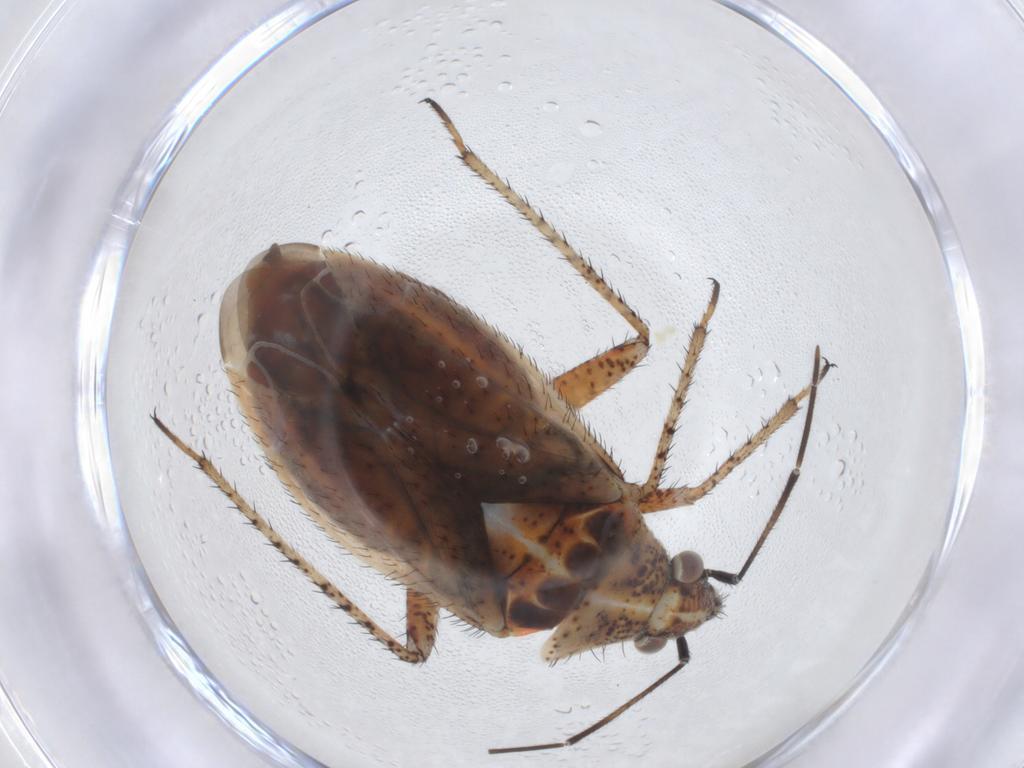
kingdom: Animalia
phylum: Arthropoda
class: Insecta
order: Hemiptera
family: Miridae
